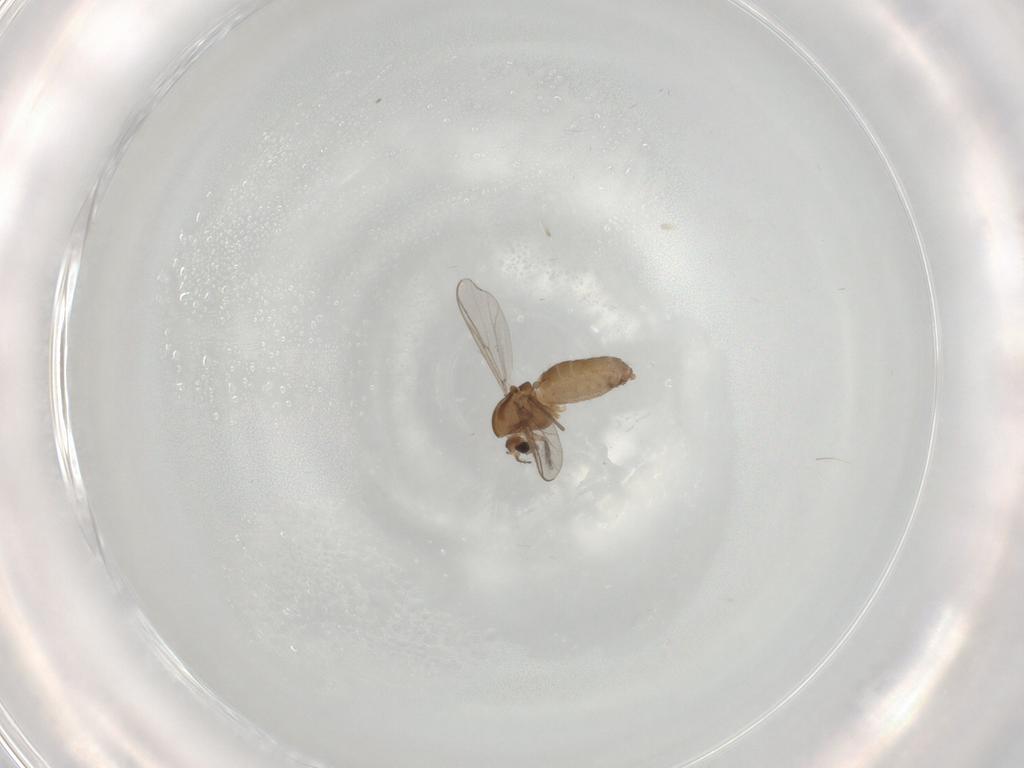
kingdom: Animalia
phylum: Arthropoda
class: Insecta
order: Diptera
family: Chironomidae
